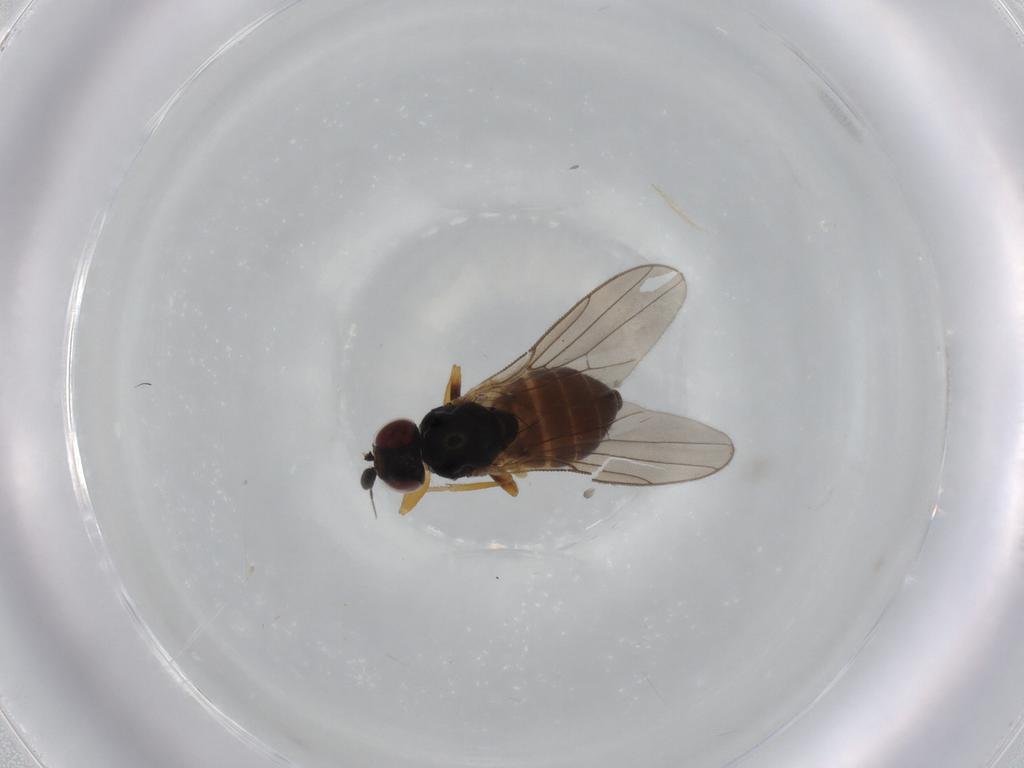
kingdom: Animalia
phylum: Arthropoda
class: Insecta
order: Diptera
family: Chloropidae
